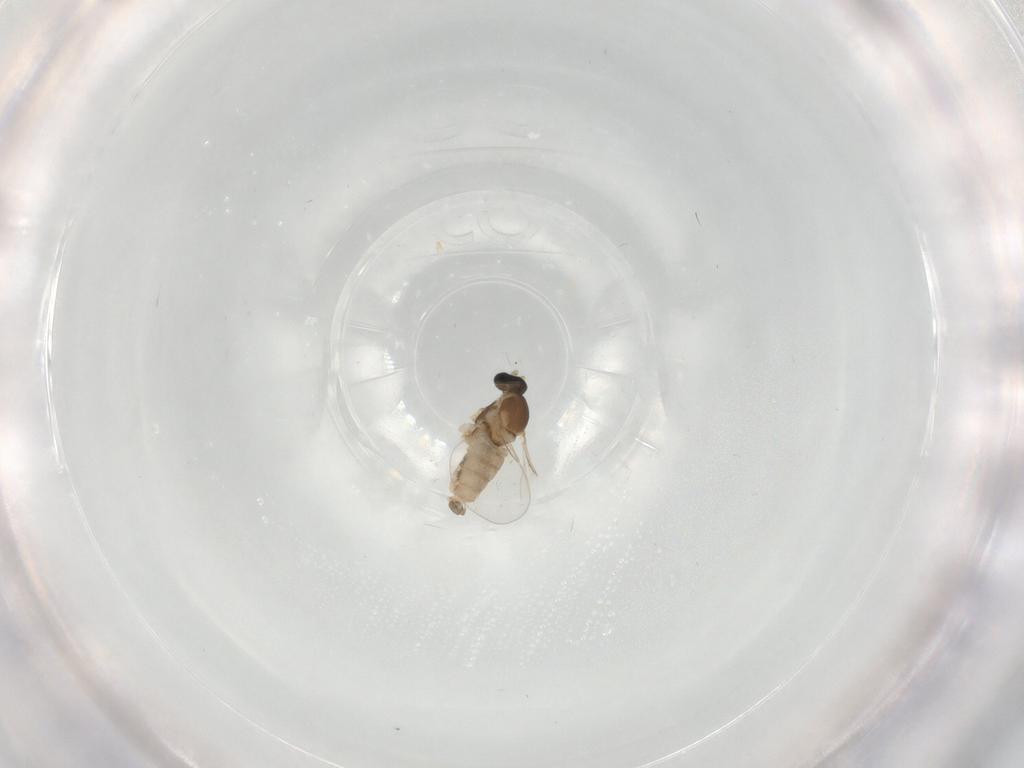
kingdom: Animalia
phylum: Arthropoda
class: Insecta
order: Diptera
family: Cecidomyiidae
